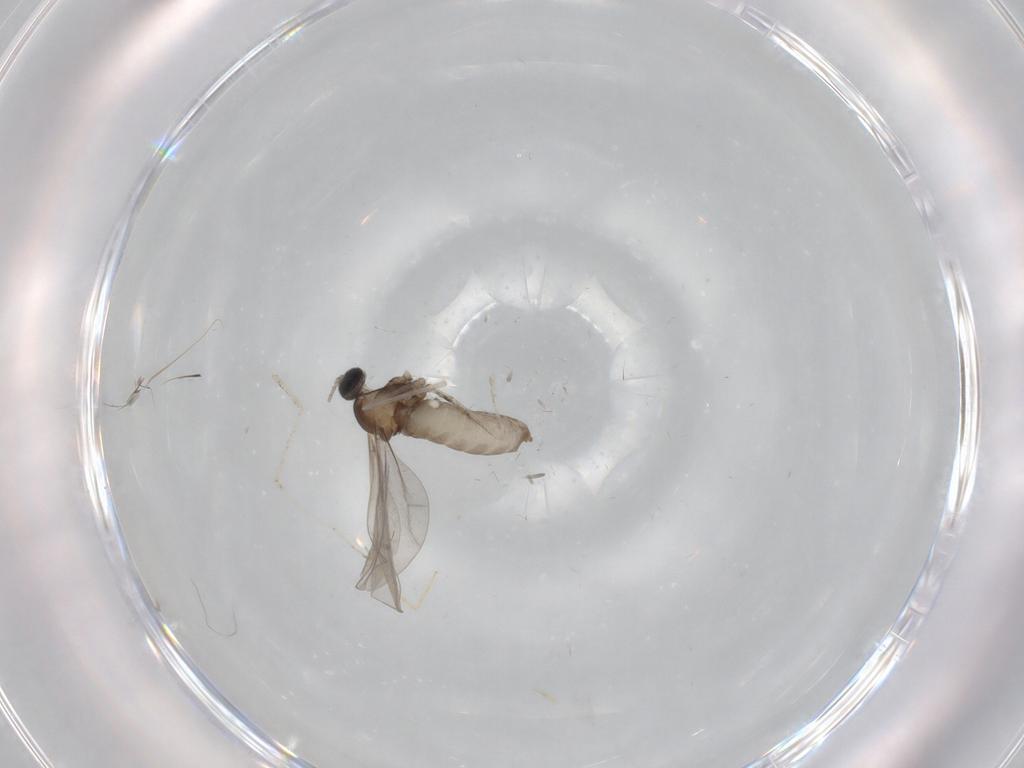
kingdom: Animalia
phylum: Arthropoda
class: Insecta
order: Diptera
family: Cecidomyiidae
